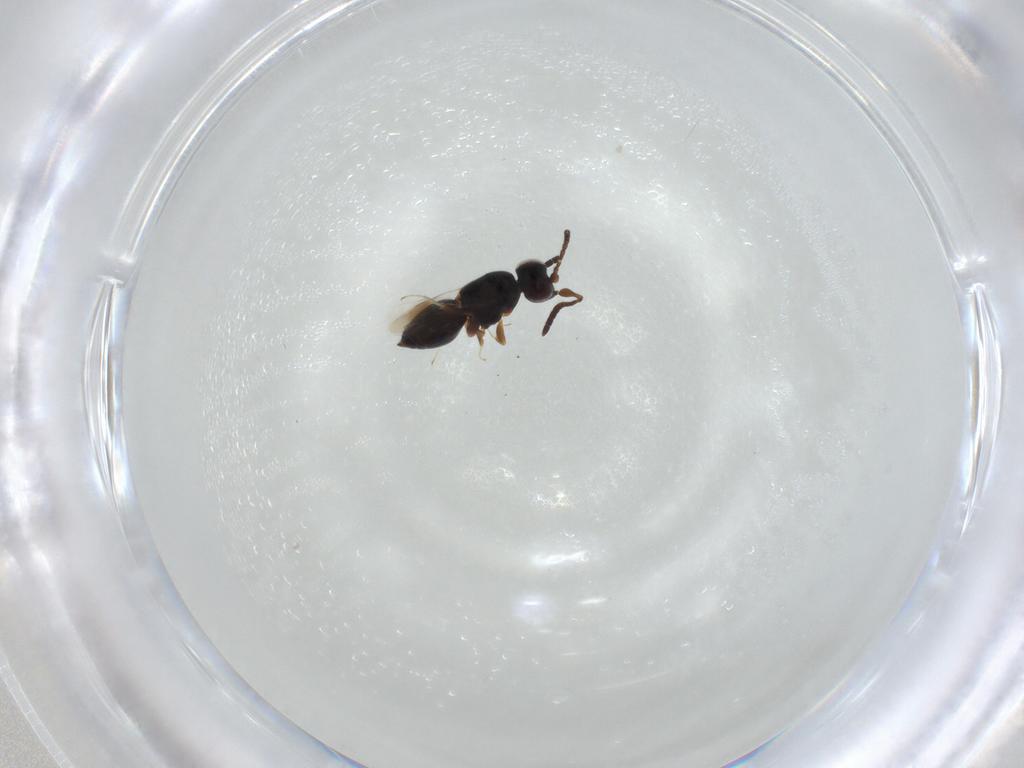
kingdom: Animalia
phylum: Arthropoda
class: Insecta
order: Hymenoptera
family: Ceraphronidae
